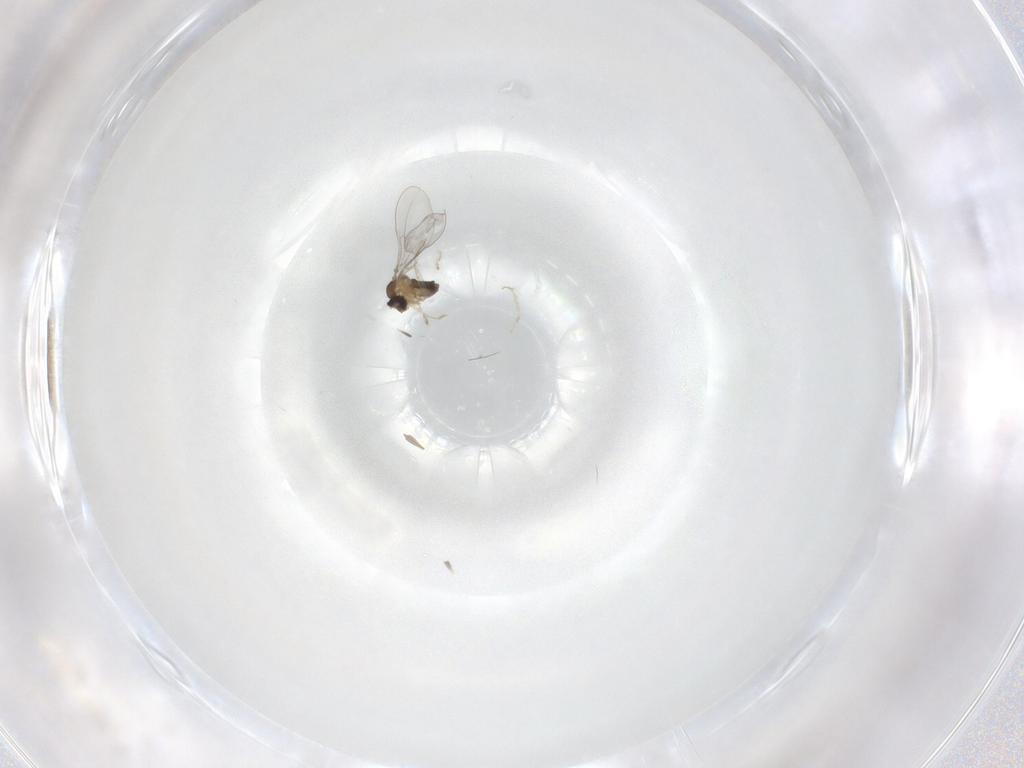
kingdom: Animalia
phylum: Arthropoda
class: Insecta
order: Diptera
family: Cecidomyiidae
